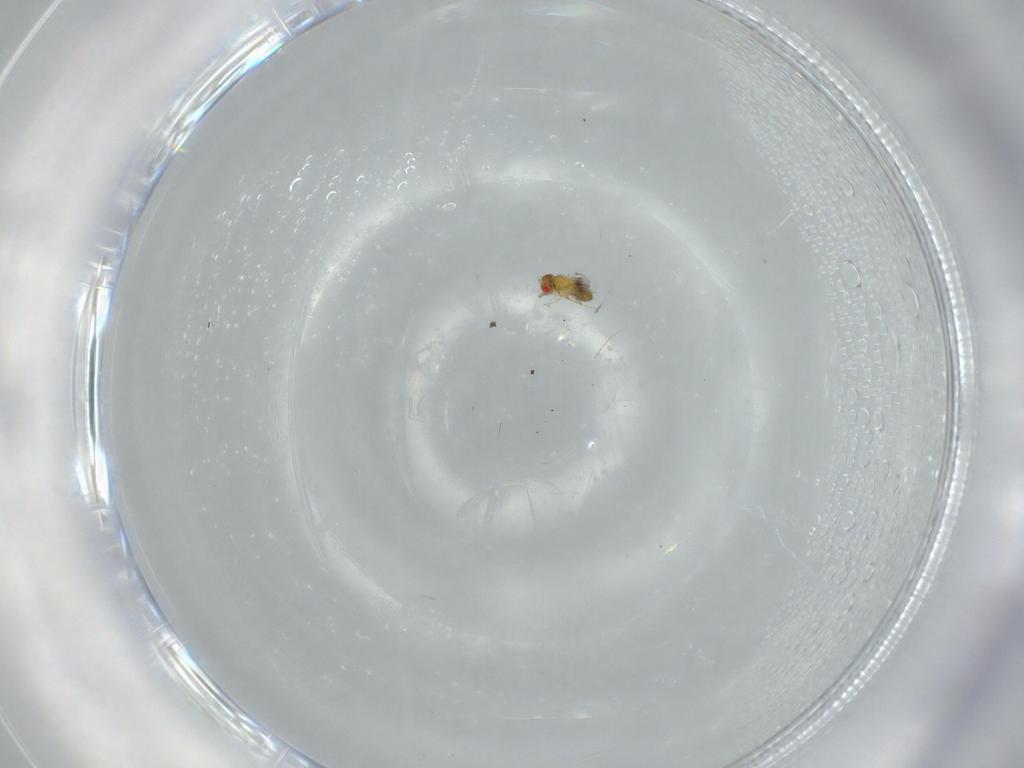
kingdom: Animalia
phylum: Arthropoda
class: Insecta
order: Hymenoptera
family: Trichogrammatidae
